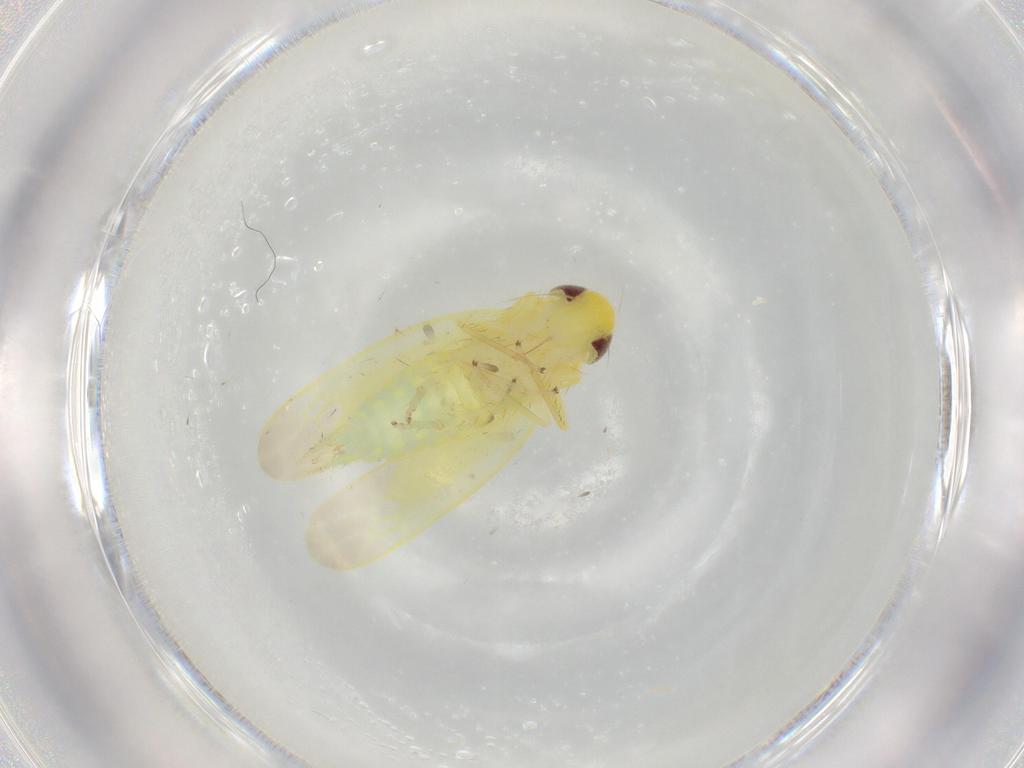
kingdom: Animalia
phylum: Arthropoda
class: Insecta
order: Hemiptera
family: Cicadellidae
